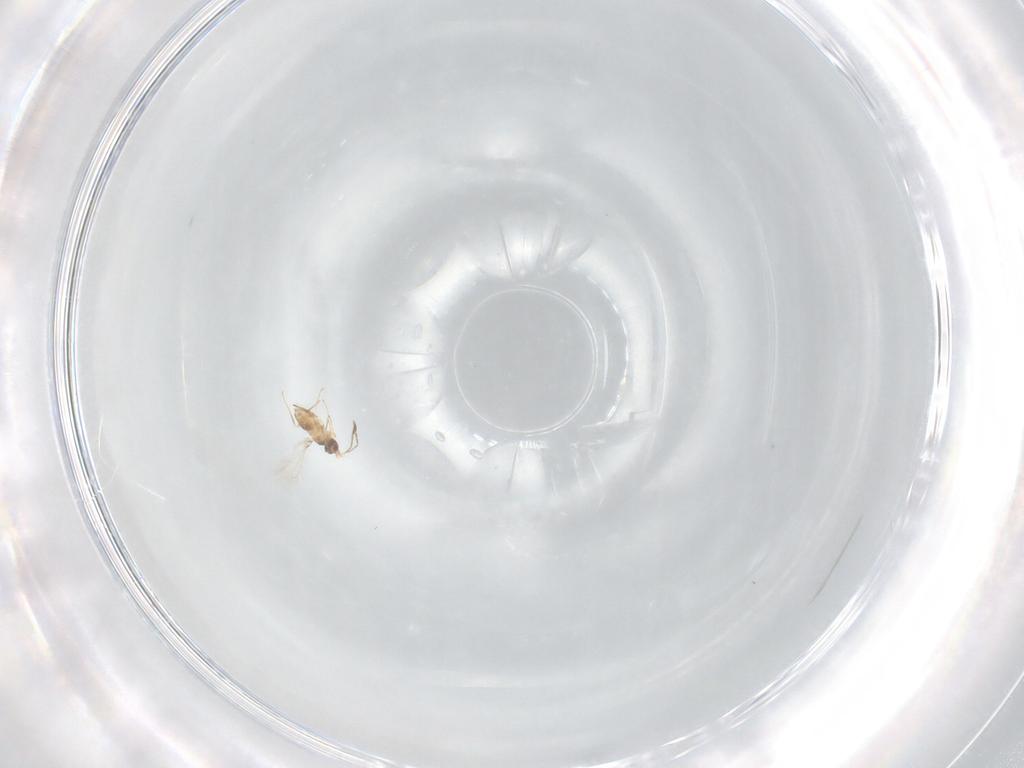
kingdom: Animalia
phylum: Arthropoda
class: Insecta
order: Hymenoptera
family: Mymaridae
